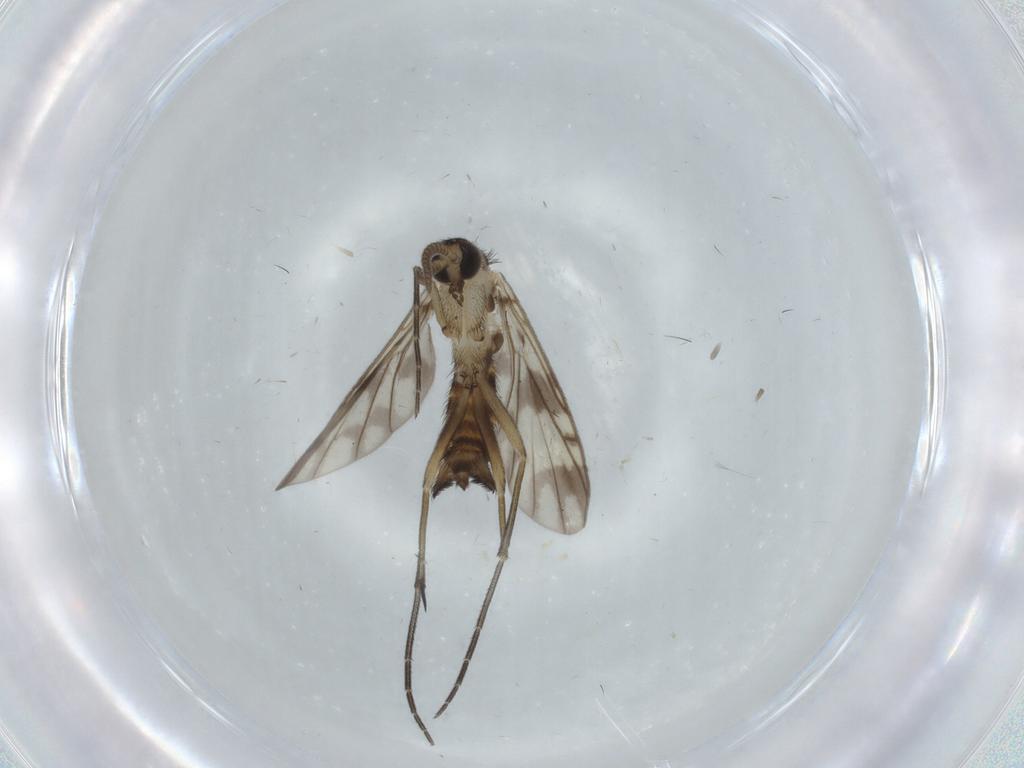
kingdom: Animalia
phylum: Arthropoda
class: Insecta
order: Diptera
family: Keroplatidae
